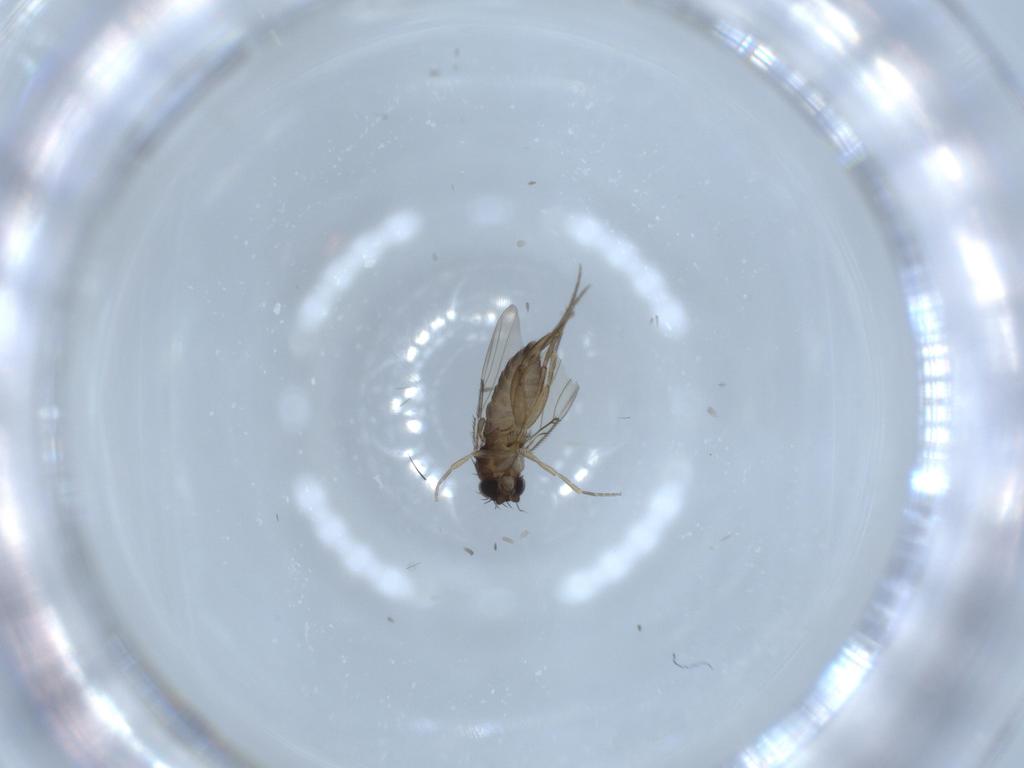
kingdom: Animalia
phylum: Arthropoda
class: Insecta
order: Diptera
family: Phoridae
